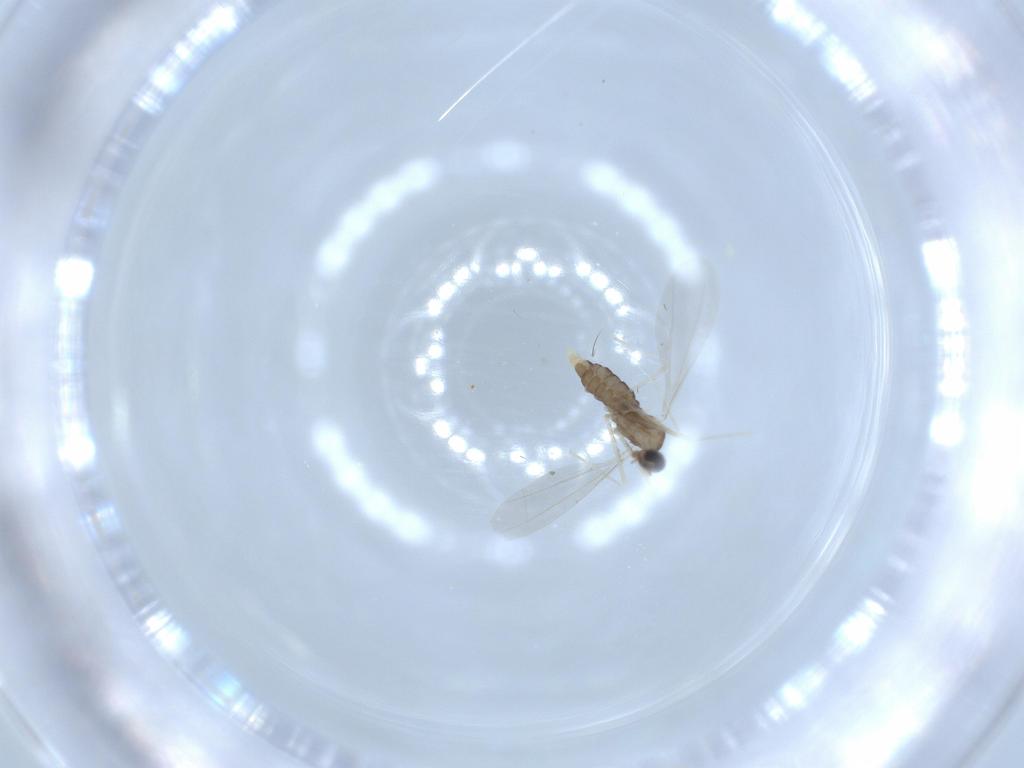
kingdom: Animalia
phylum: Arthropoda
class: Insecta
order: Diptera
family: Cecidomyiidae
